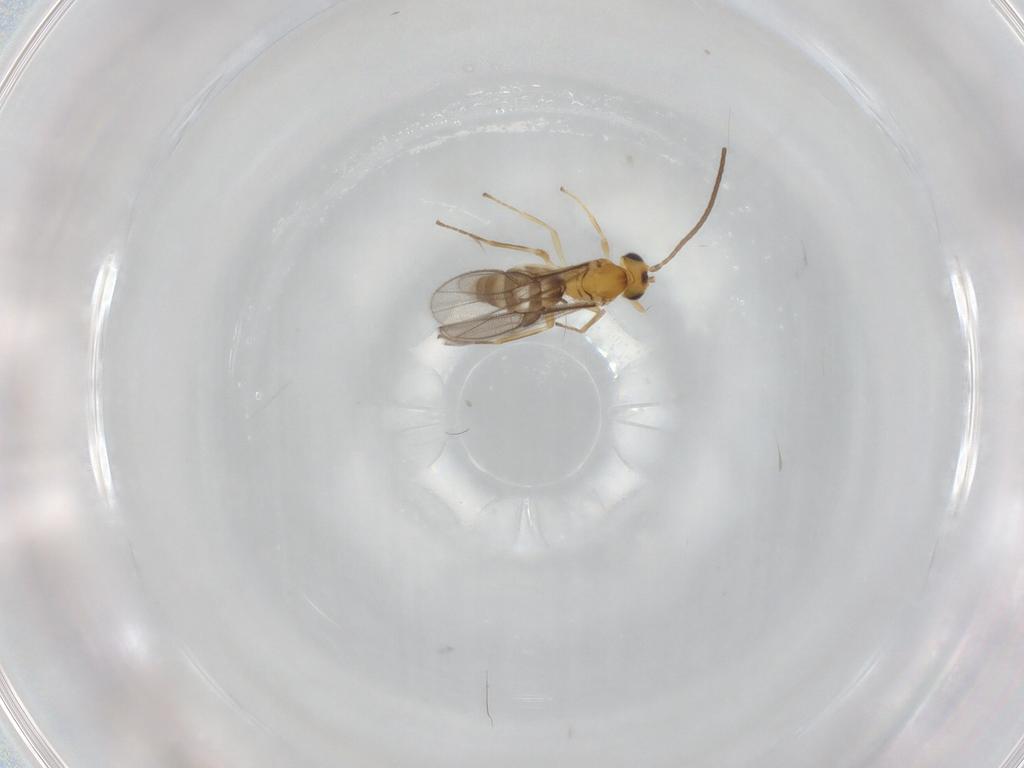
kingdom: Animalia
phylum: Arthropoda
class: Insecta
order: Hymenoptera
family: Braconidae
